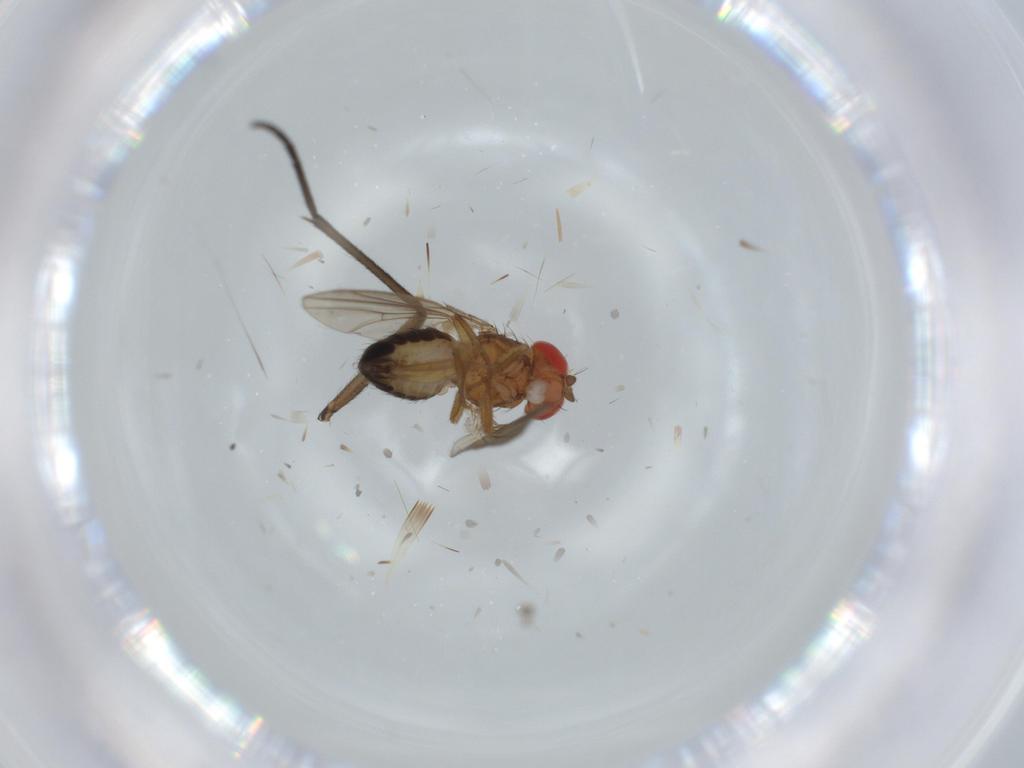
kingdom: Animalia
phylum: Arthropoda
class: Insecta
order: Diptera
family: Drosophilidae
